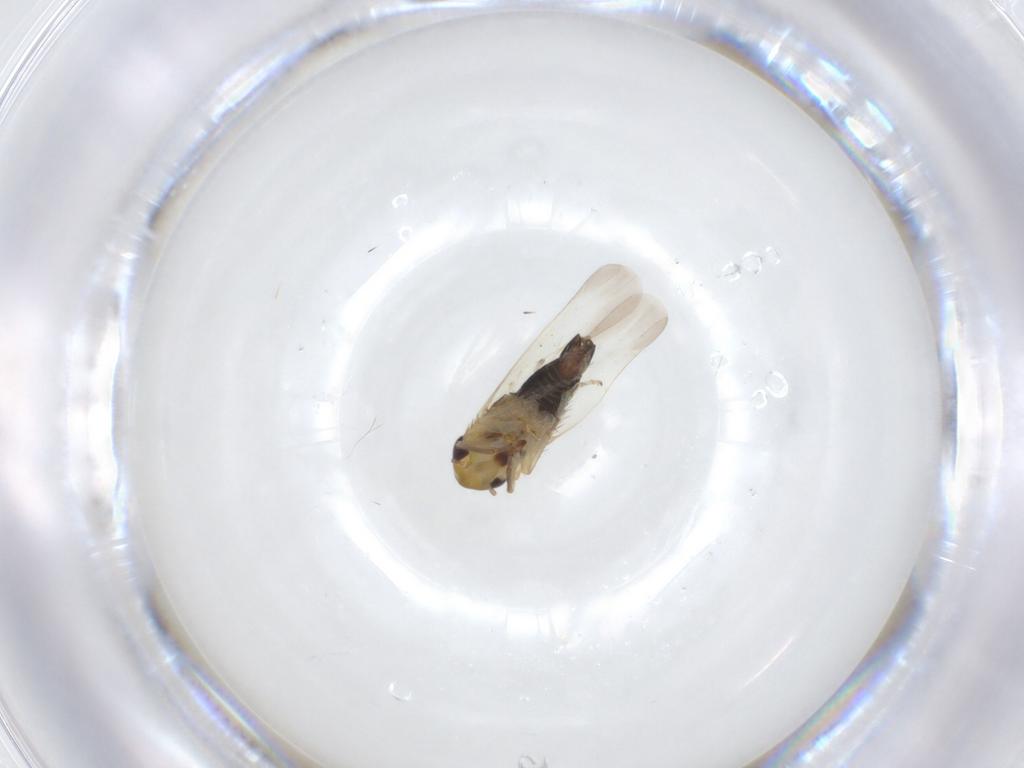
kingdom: Animalia
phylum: Arthropoda
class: Insecta
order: Hemiptera
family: Cicadellidae
